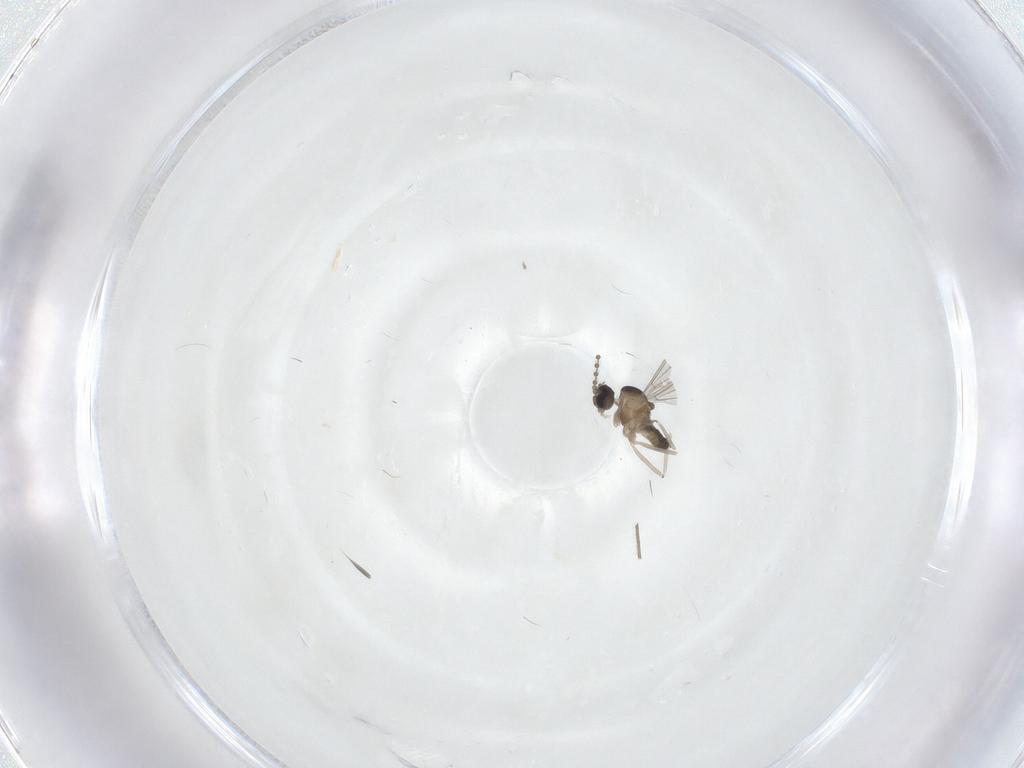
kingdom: Animalia
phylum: Arthropoda
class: Insecta
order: Diptera
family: Cecidomyiidae
